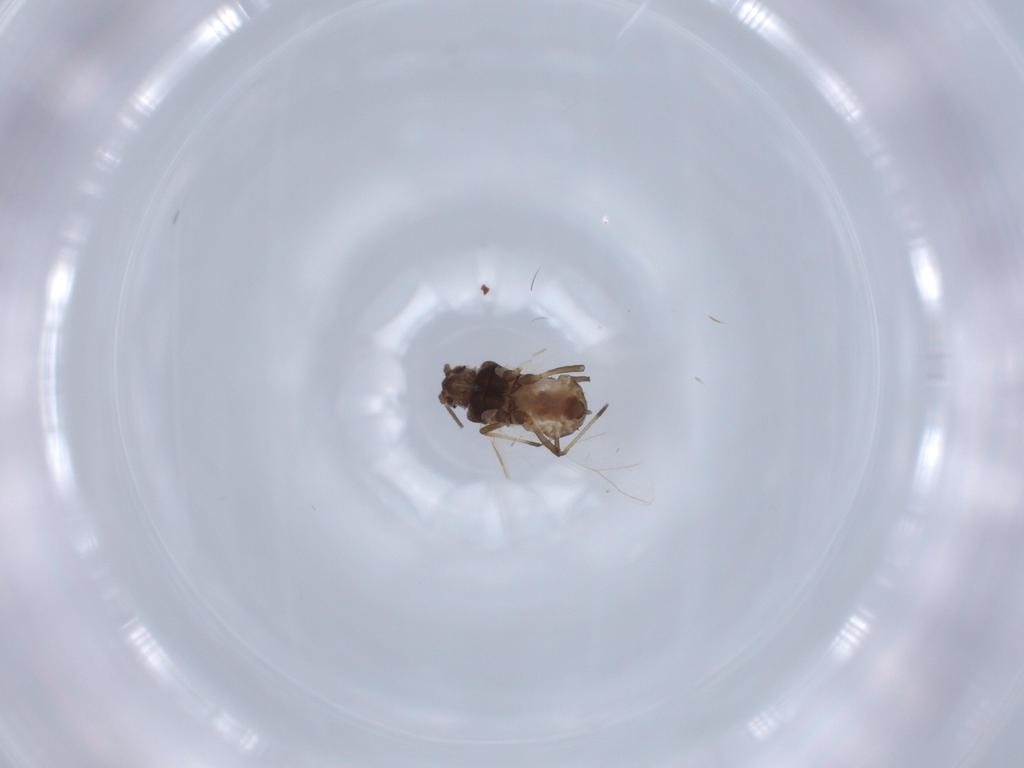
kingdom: Animalia
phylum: Arthropoda
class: Insecta
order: Hemiptera
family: Aphididae
